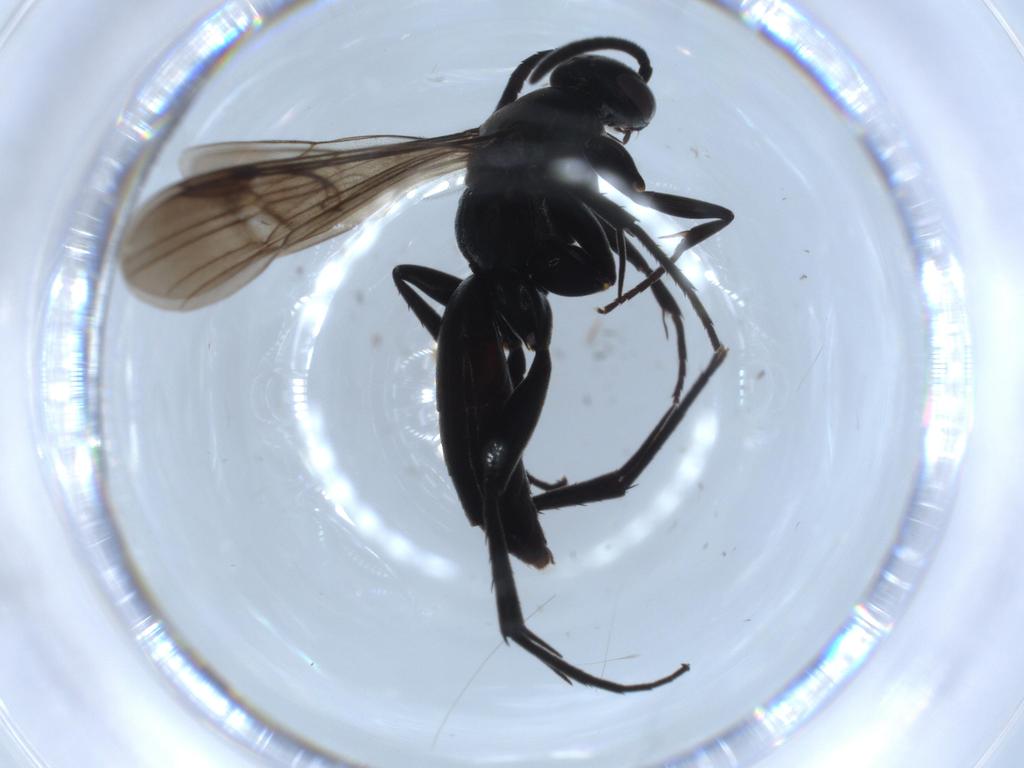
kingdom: Animalia
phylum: Arthropoda
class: Insecta
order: Hymenoptera
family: Pompilidae
